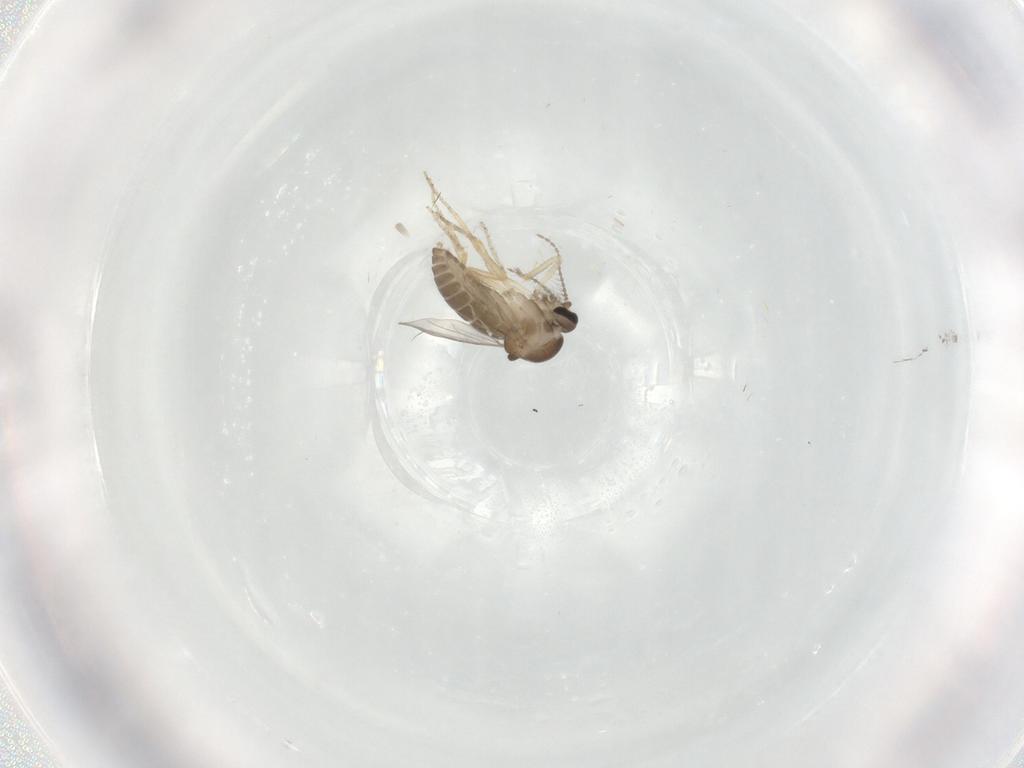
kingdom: Animalia
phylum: Arthropoda
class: Insecta
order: Diptera
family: Ceratopogonidae
